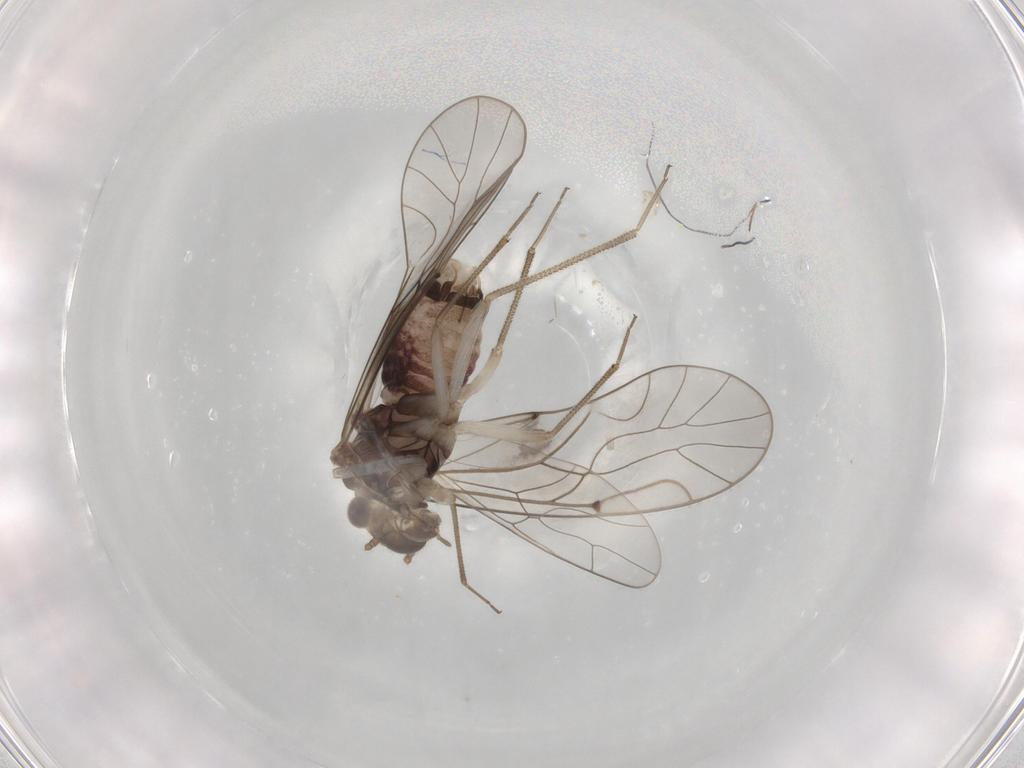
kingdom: Animalia
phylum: Arthropoda
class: Insecta
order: Psocodea
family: Lachesillidae
